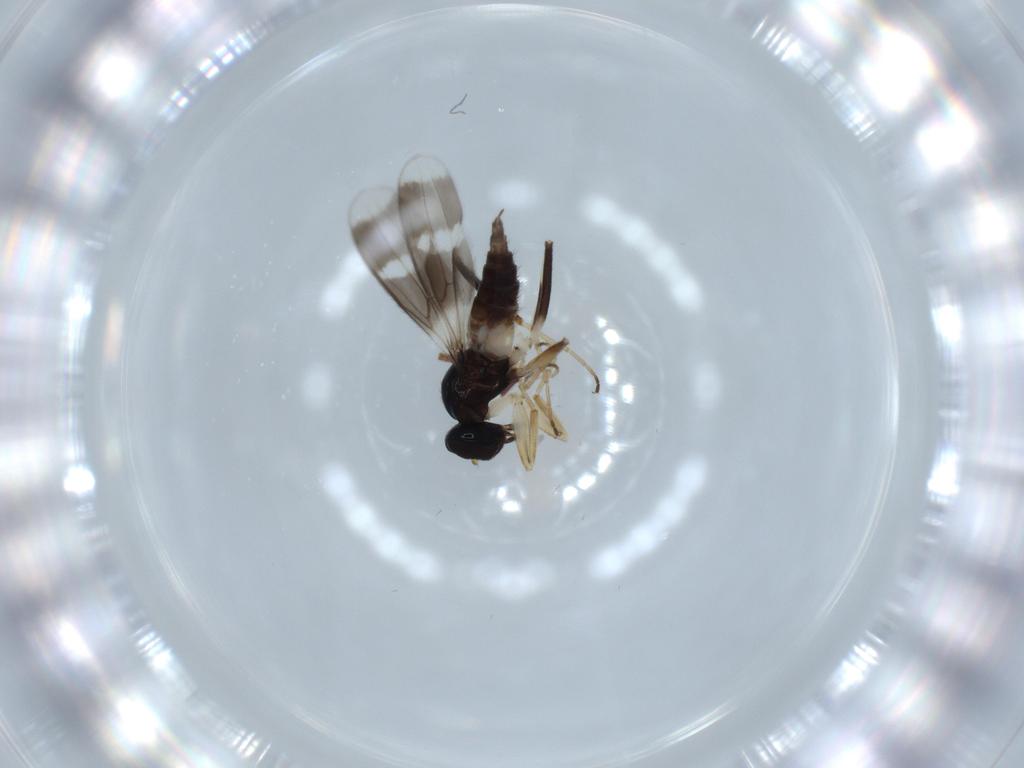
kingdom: Animalia
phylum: Arthropoda
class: Insecta
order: Diptera
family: Hybotidae
